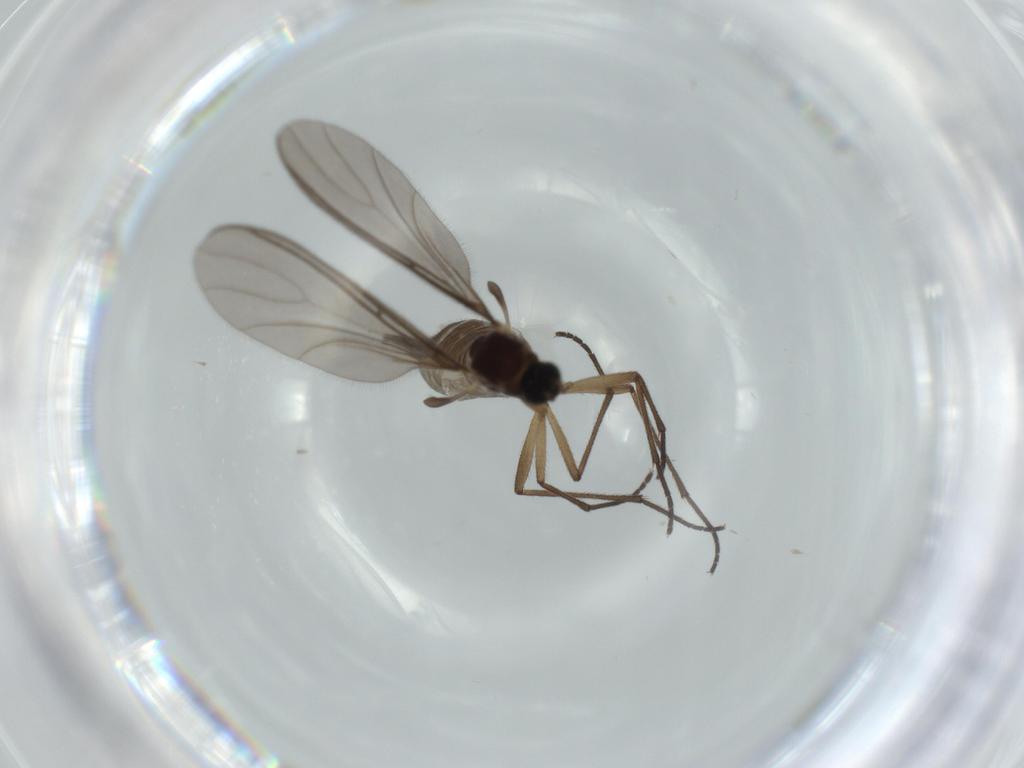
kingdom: Animalia
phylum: Arthropoda
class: Insecta
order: Diptera
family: Sciaridae
